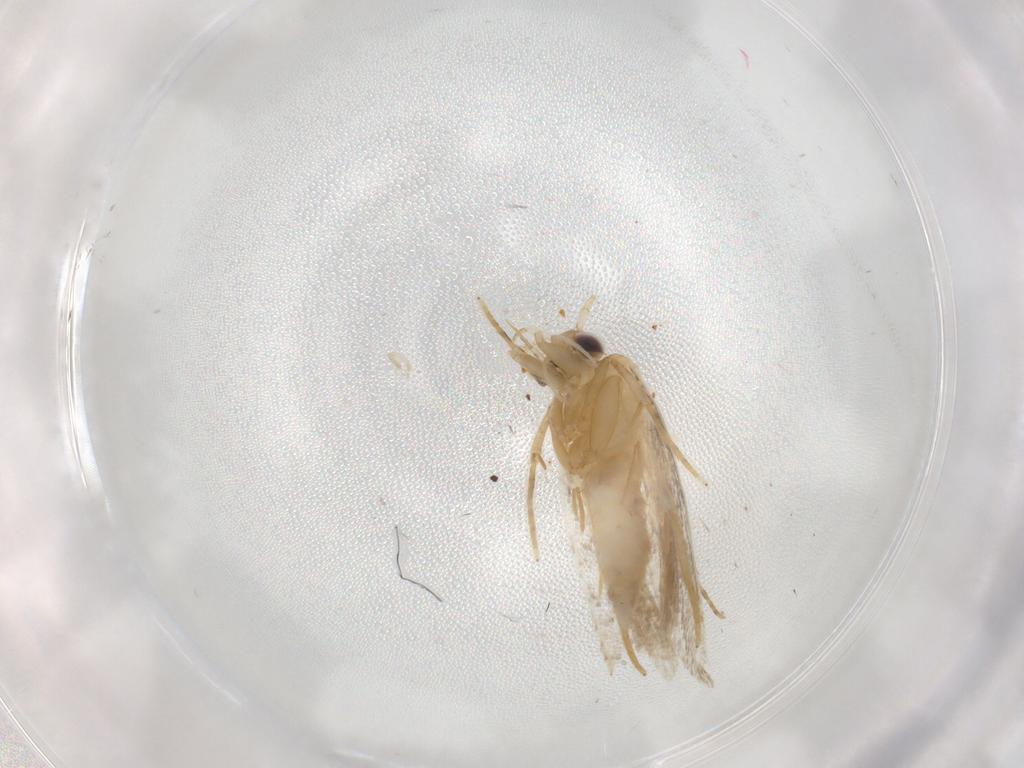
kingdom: Animalia
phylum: Arthropoda
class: Insecta
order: Lepidoptera
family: Autostichidae
